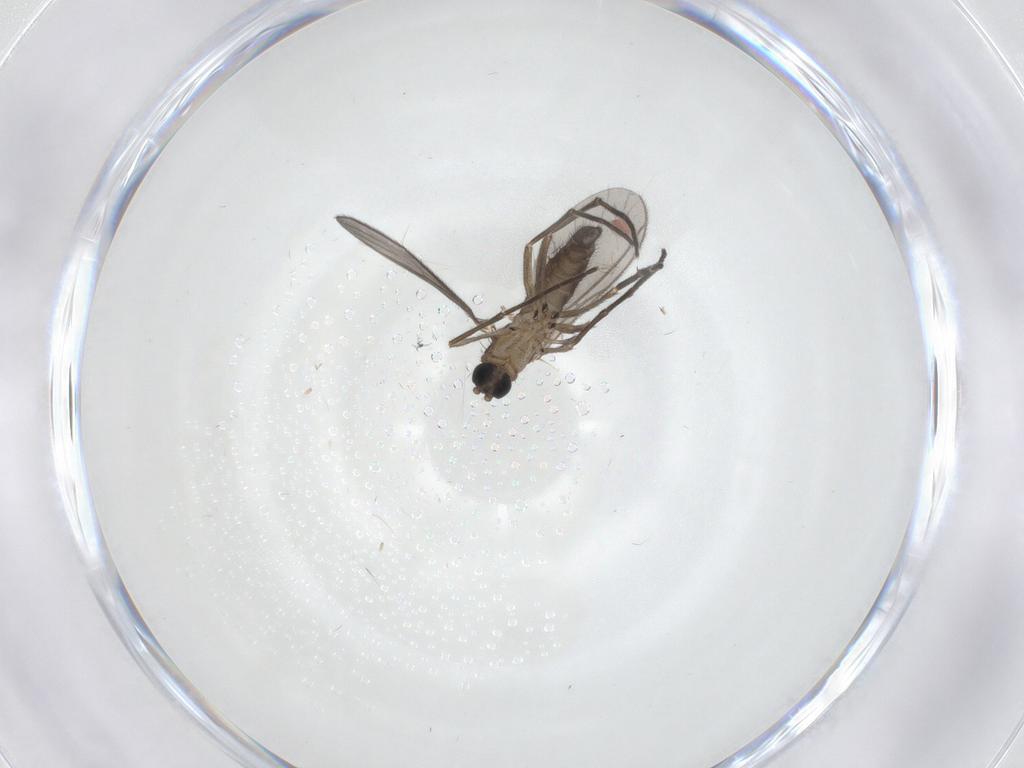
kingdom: Animalia
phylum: Arthropoda
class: Insecta
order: Diptera
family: Sciaridae
